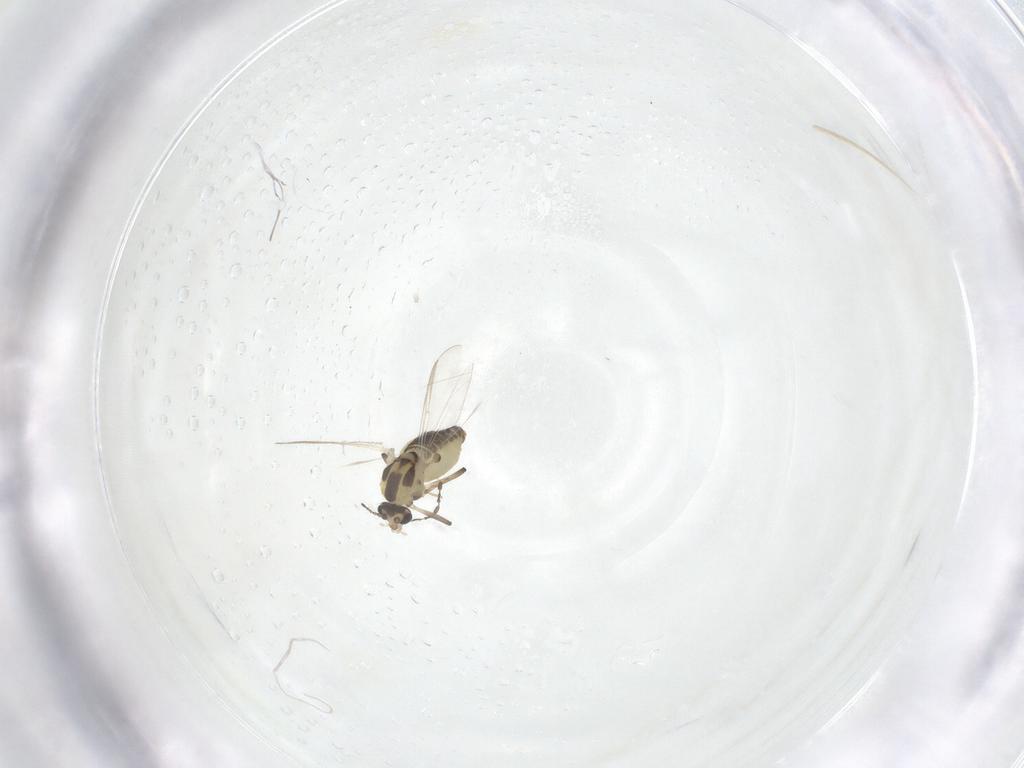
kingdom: Animalia
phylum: Arthropoda
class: Insecta
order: Diptera
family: Chironomidae
